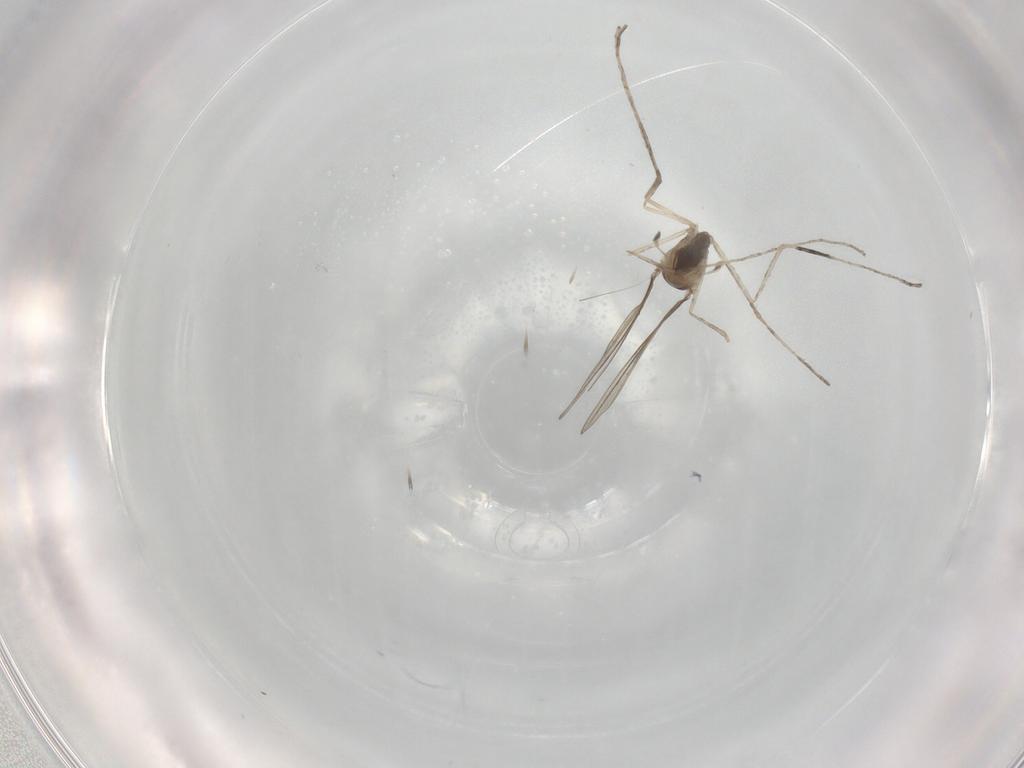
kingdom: Animalia
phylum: Arthropoda
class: Insecta
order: Diptera
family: Cecidomyiidae
